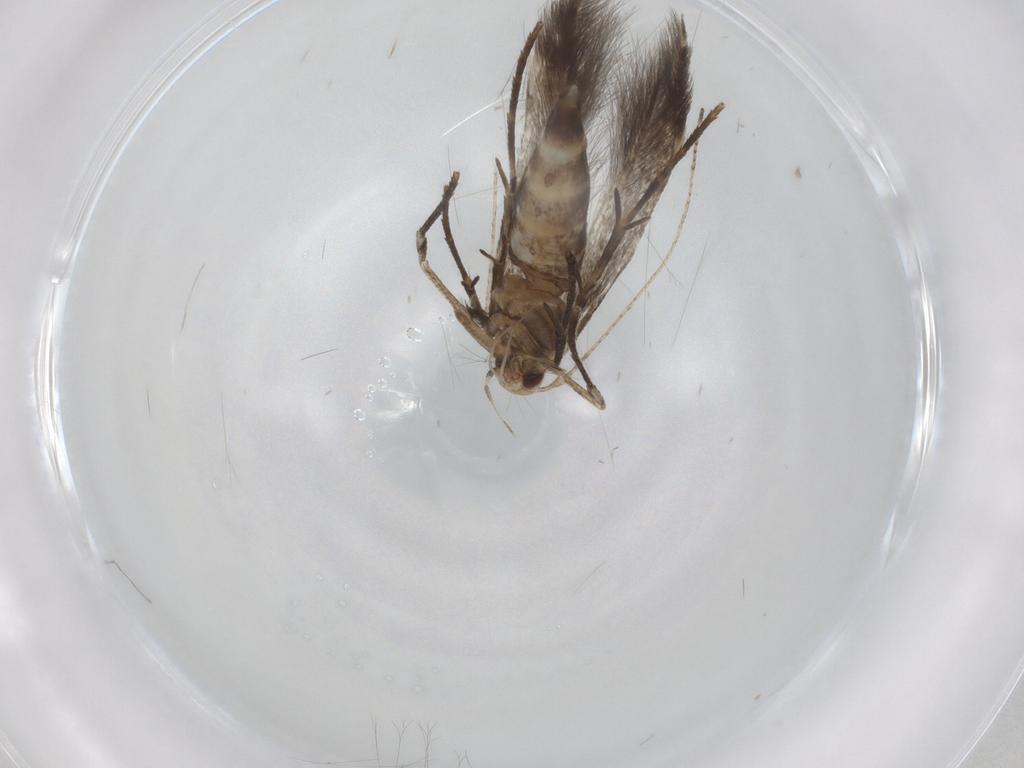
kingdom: Animalia
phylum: Arthropoda
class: Insecta
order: Lepidoptera
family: Cosmopterigidae
